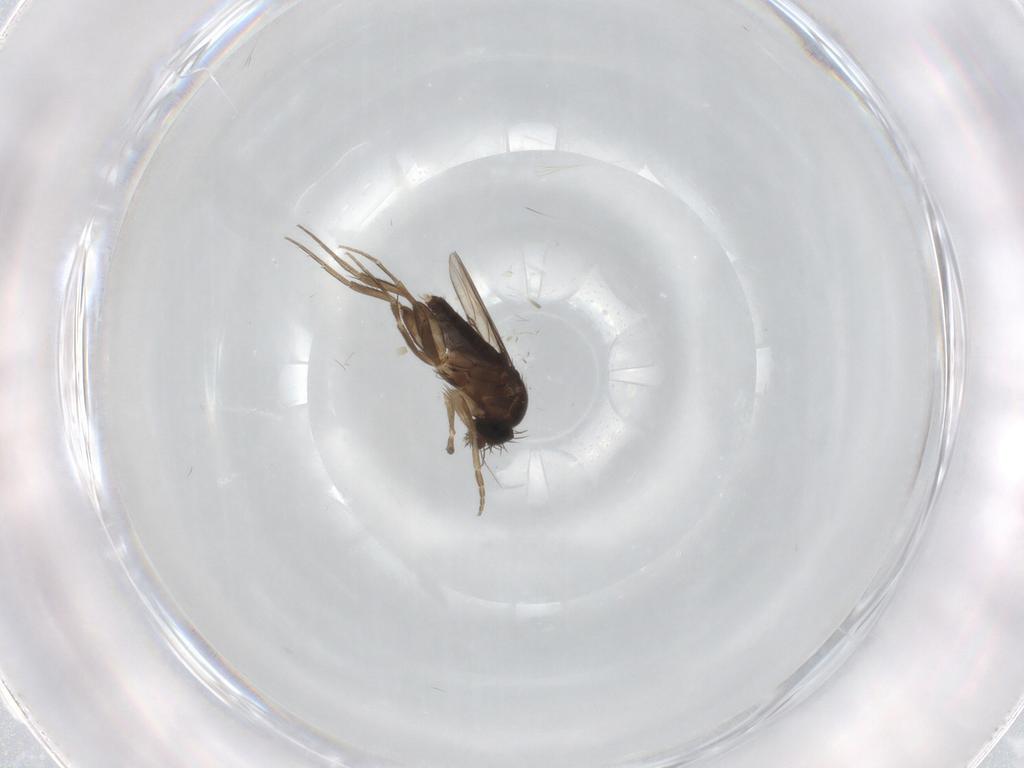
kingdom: Animalia
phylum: Arthropoda
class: Insecta
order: Diptera
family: Phoridae
